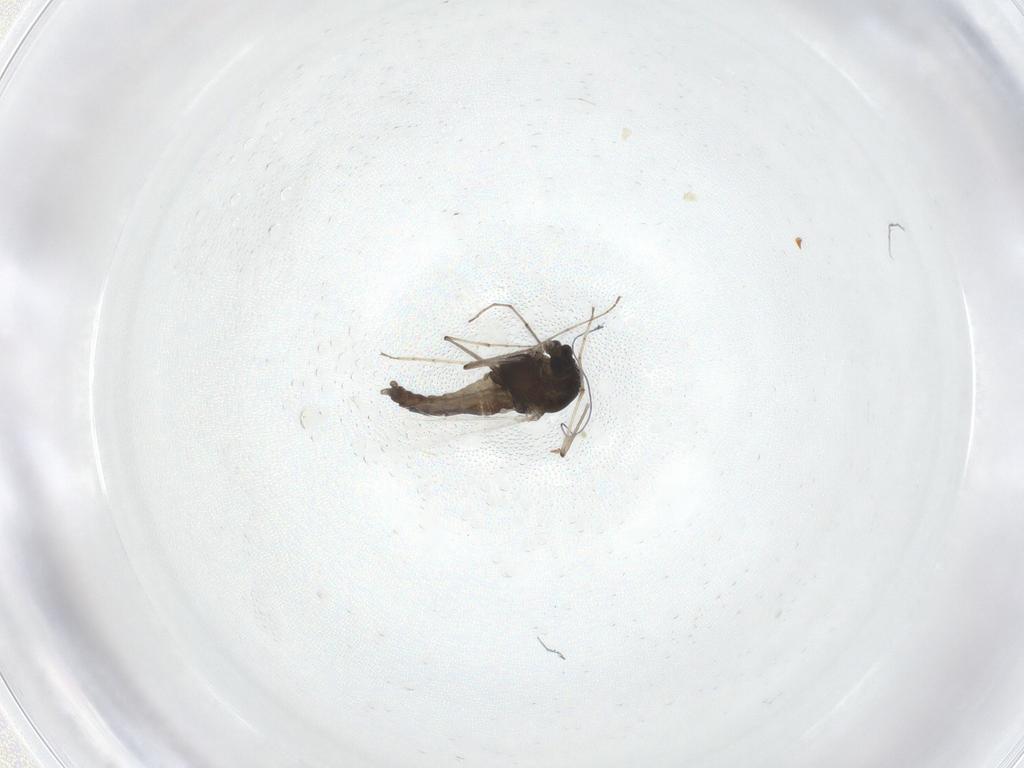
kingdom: Animalia
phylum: Arthropoda
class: Insecta
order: Diptera
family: Chironomidae
